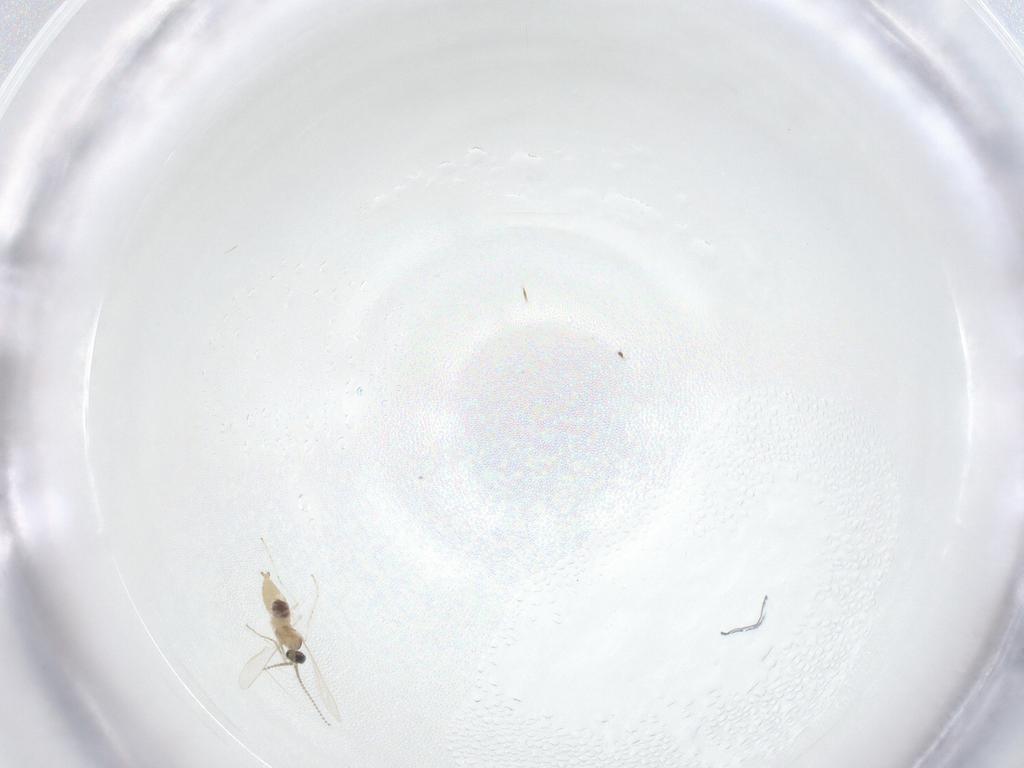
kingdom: Animalia
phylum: Arthropoda
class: Insecta
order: Diptera
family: Cecidomyiidae
